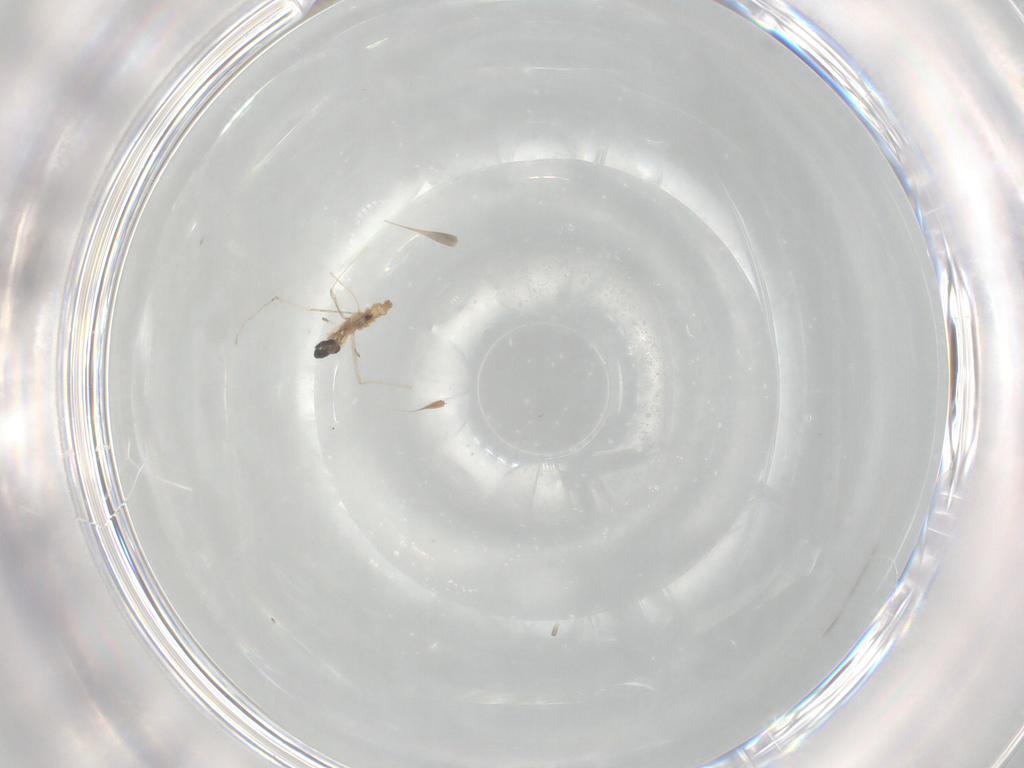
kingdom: Animalia
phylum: Arthropoda
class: Insecta
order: Diptera
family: Cecidomyiidae
